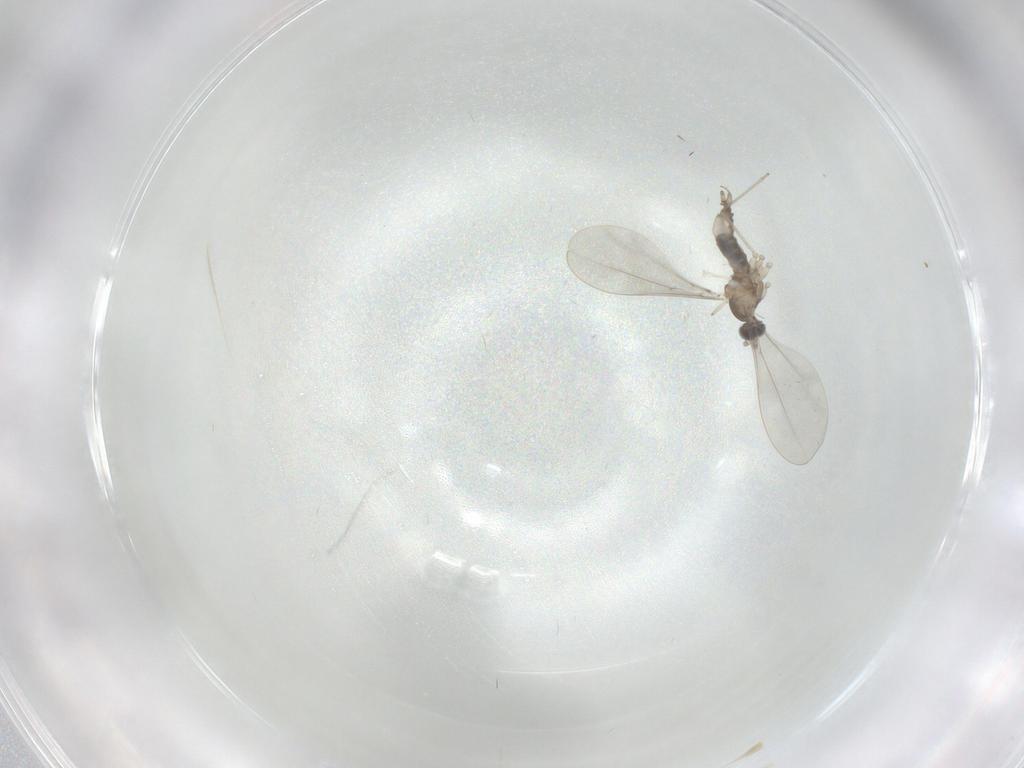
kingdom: Animalia
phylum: Arthropoda
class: Insecta
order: Diptera
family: Cecidomyiidae
